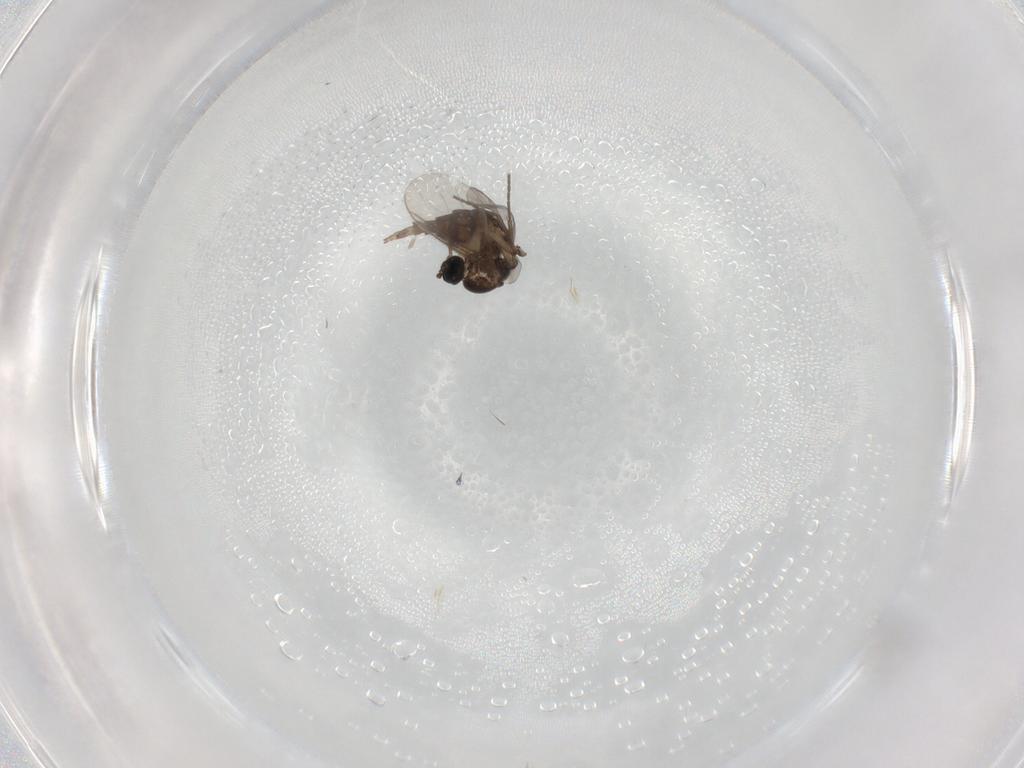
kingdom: Animalia
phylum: Arthropoda
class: Insecta
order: Diptera
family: Sciaridae
